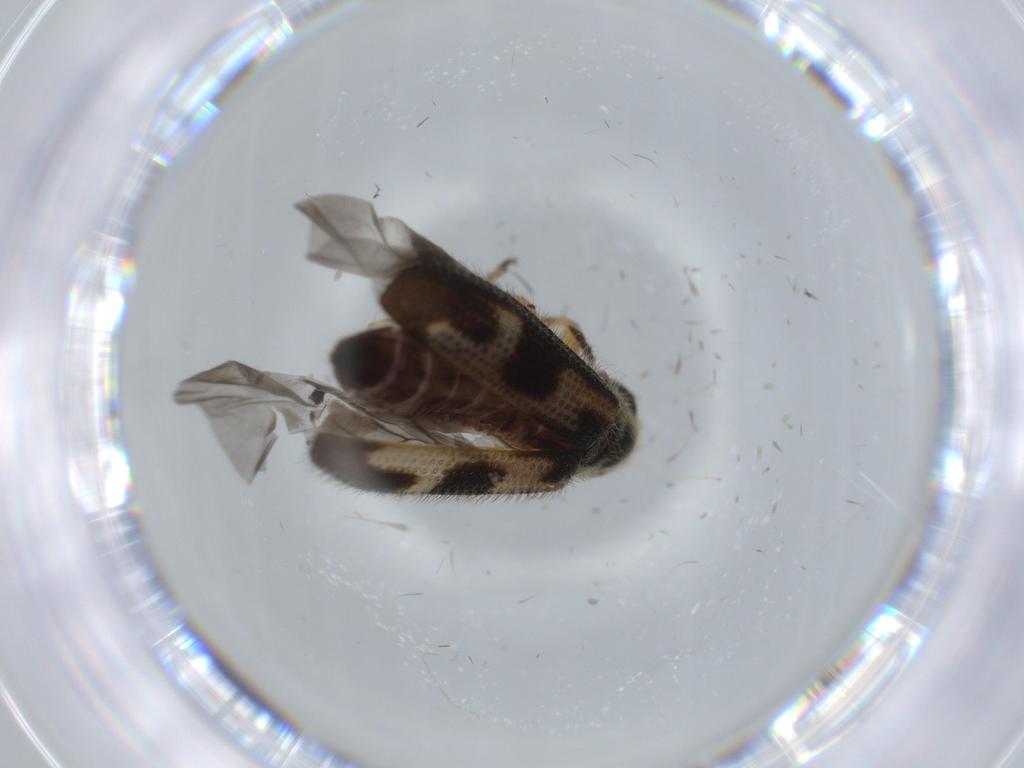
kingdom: Animalia
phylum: Arthropoda
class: Insecta
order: Coleoptera
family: Cleridae
